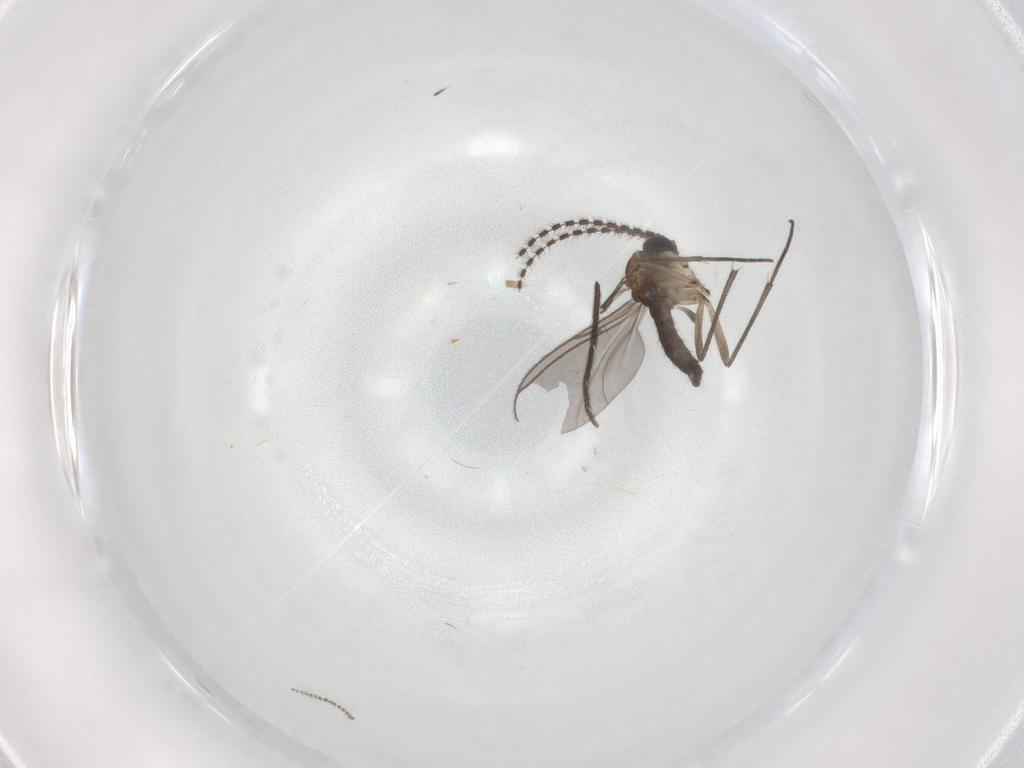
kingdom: Animalia
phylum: Arthropoda
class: Insecta
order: Diptera
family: Sciaridae
